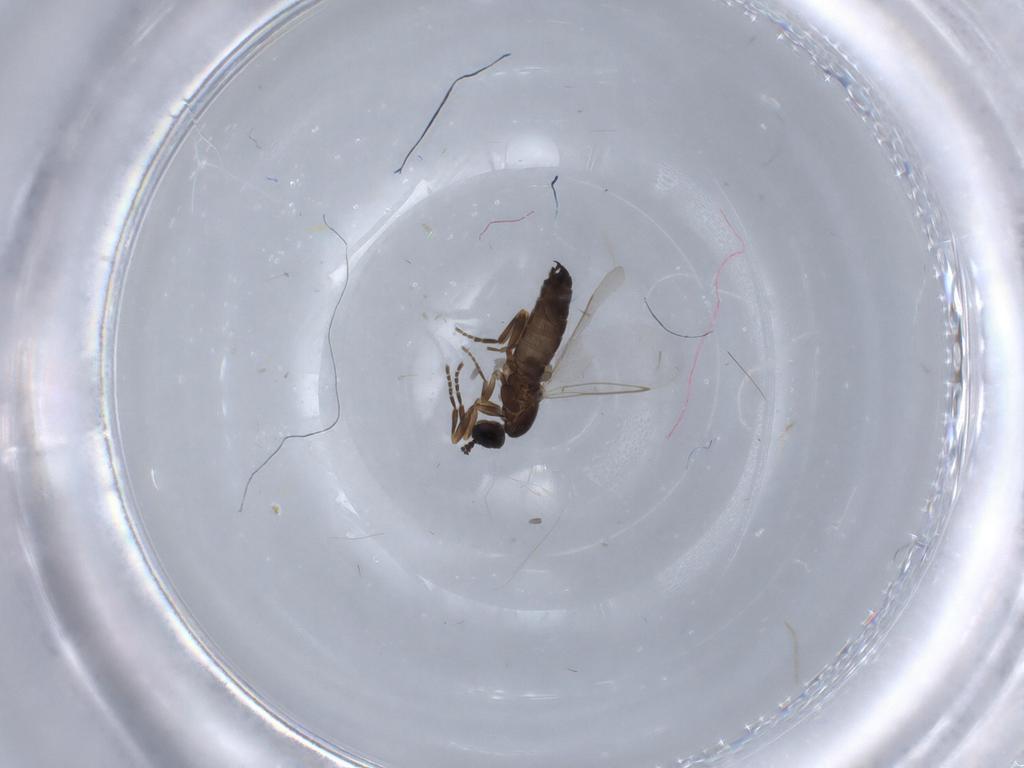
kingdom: Animalia
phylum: Arthropoda
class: Insecta
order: Diptera
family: Scatopsidae
